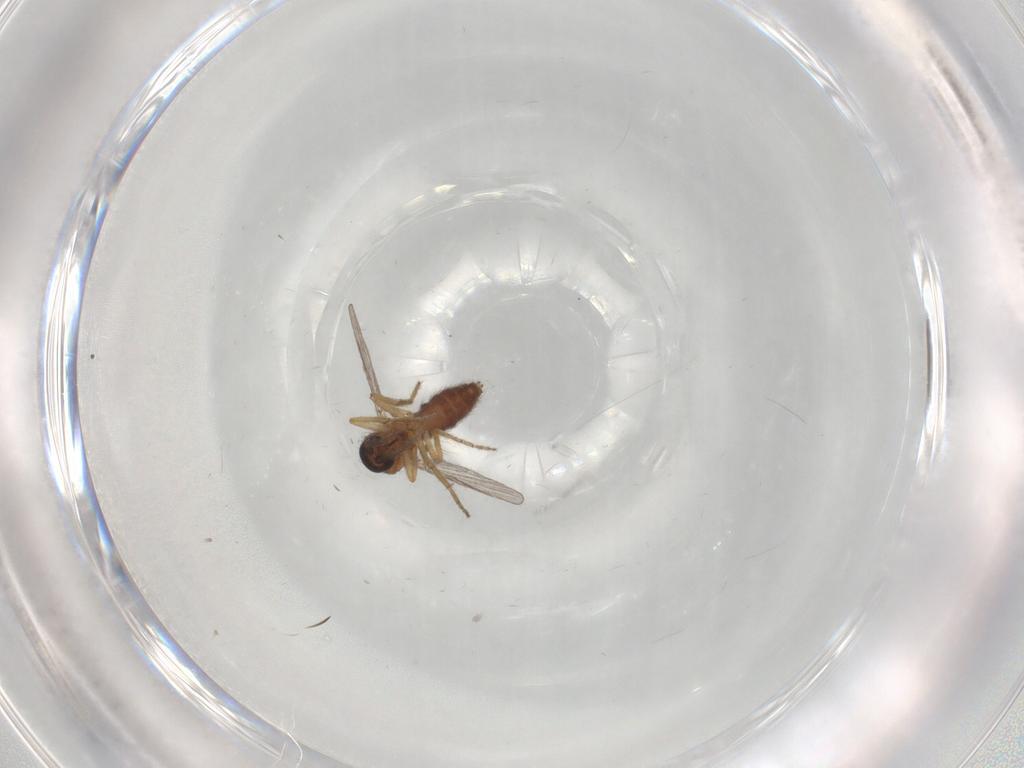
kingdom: Animalia
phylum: Arthropoda
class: Insecta
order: Diptera
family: Ceratopogonidae
